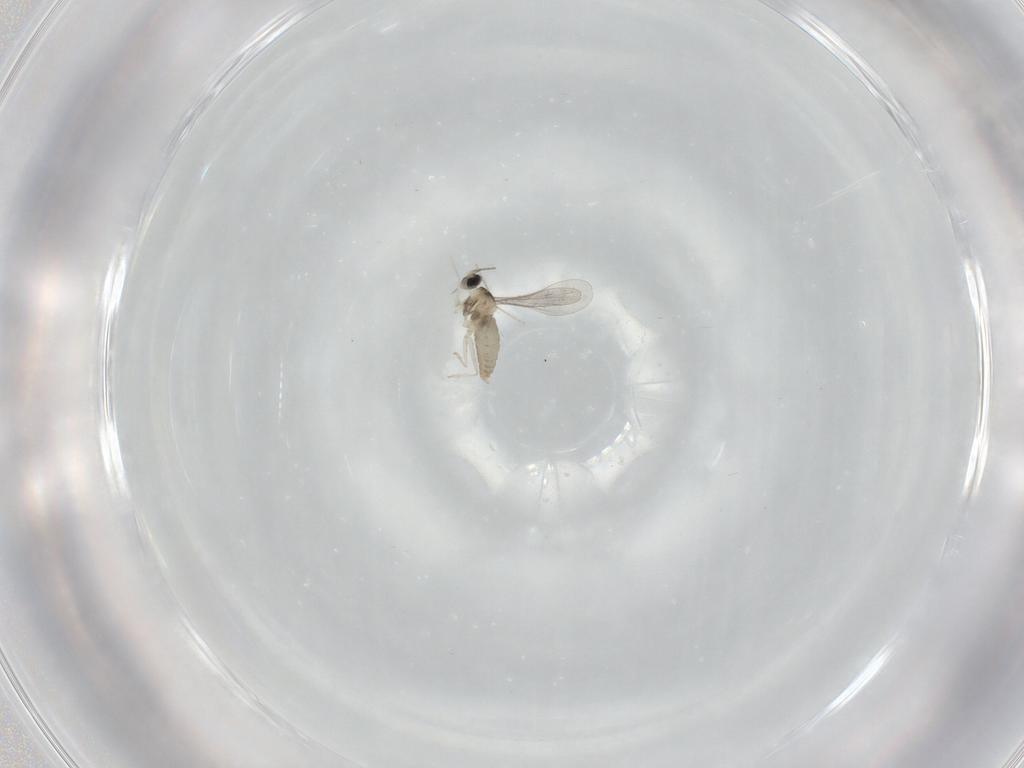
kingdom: Animalia
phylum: Arthropoda
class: Insecta
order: Diptera
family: Cecidomyiidae
